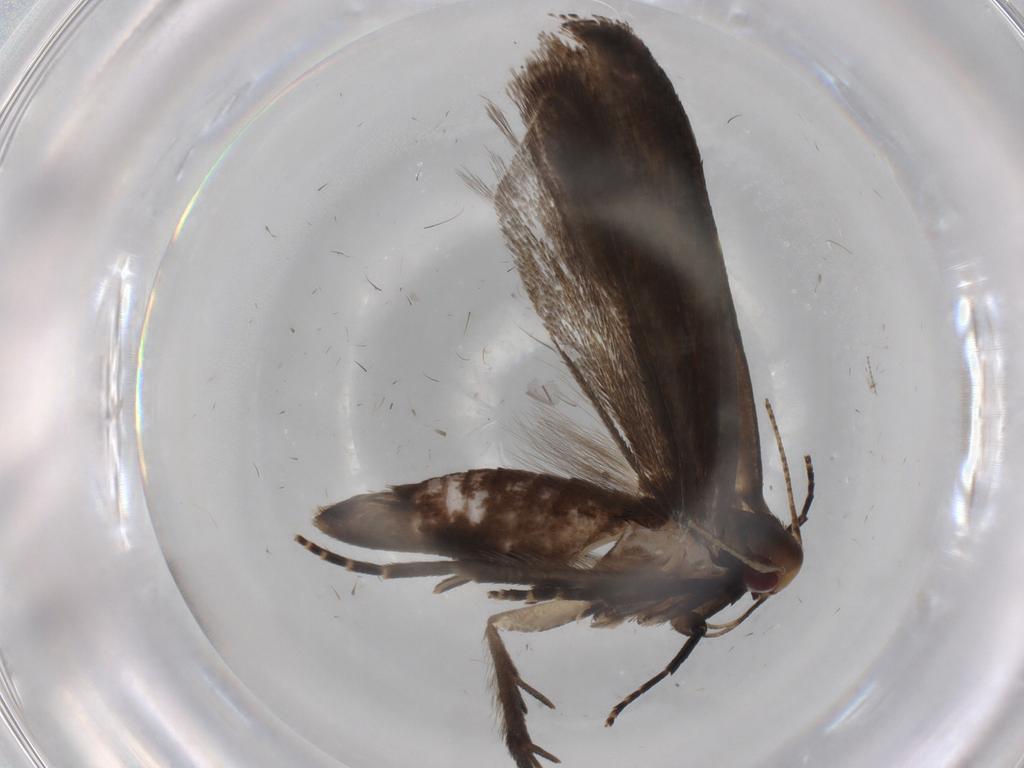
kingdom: Animalia
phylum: Arthropoda
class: Insecta
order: Lepidoptera
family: Gelechiidae
